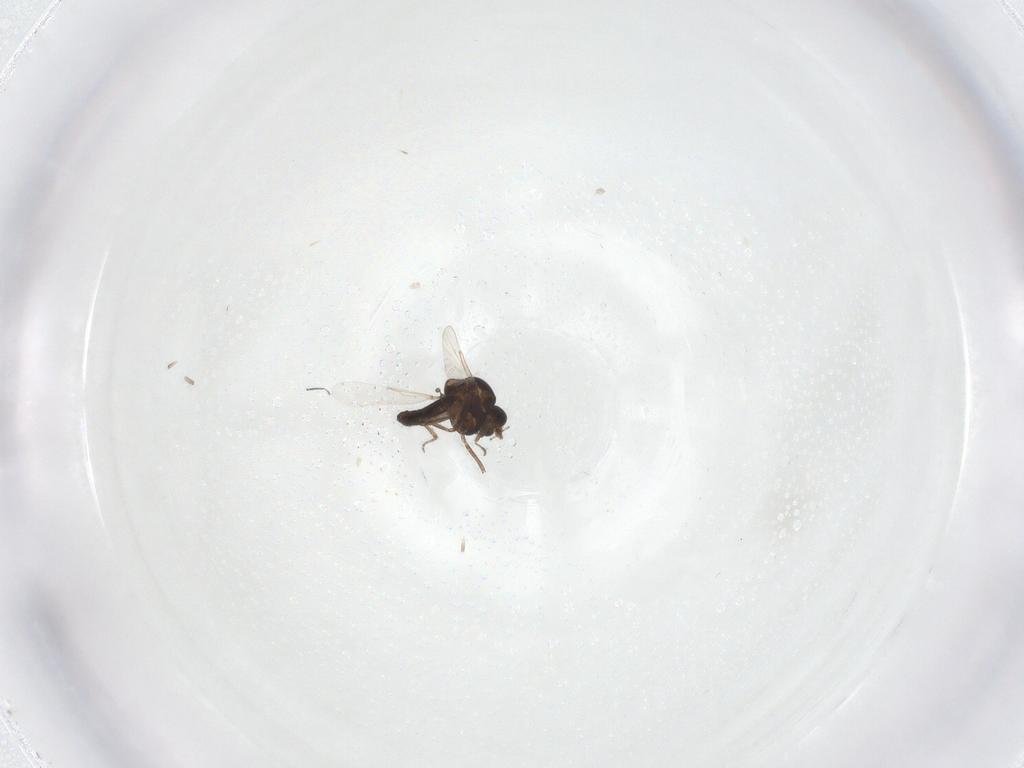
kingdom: Animalia
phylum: Arthropoda
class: Insecta
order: Diptera
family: Ceratopogonidae
